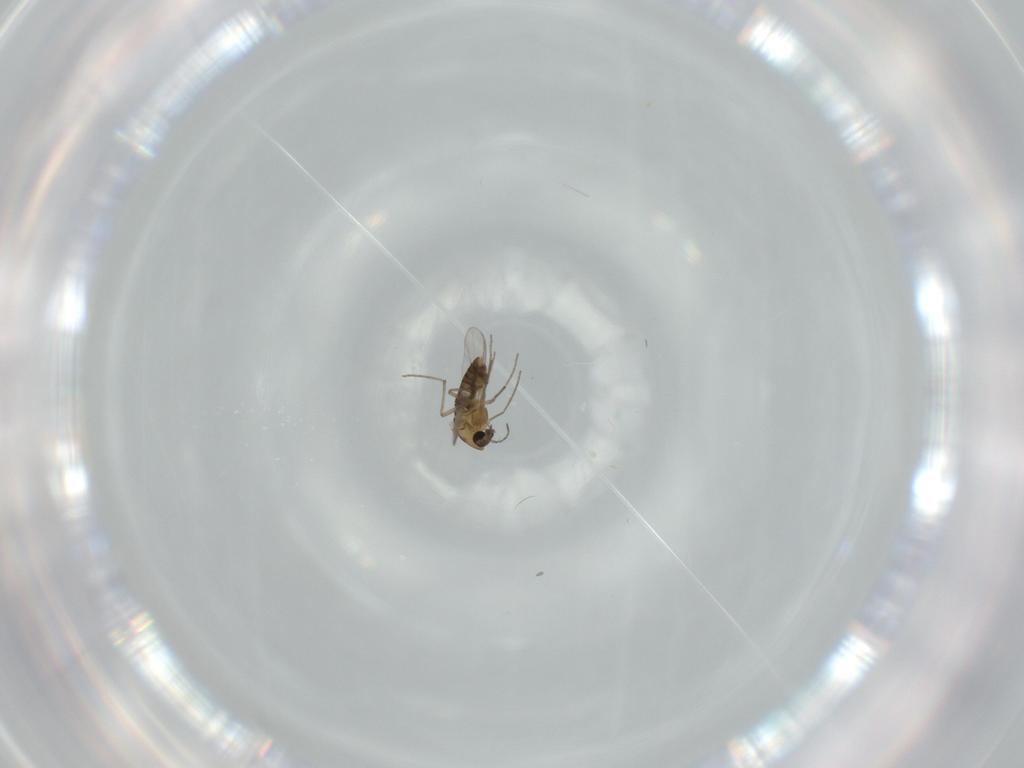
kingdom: Animalia
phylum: Arthropoda
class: Insecta
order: Diptera
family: Chironomidae
